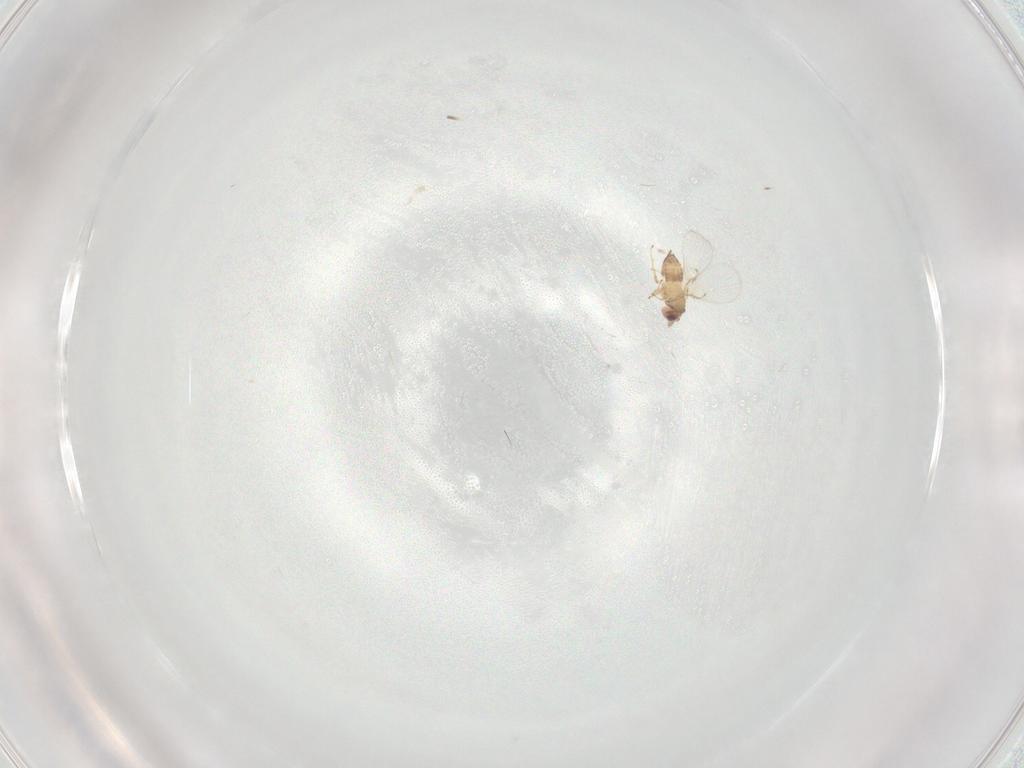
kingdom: Animalia
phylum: Arthropoda
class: Insecta
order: Hymenoptera
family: Trichogrammatidae
